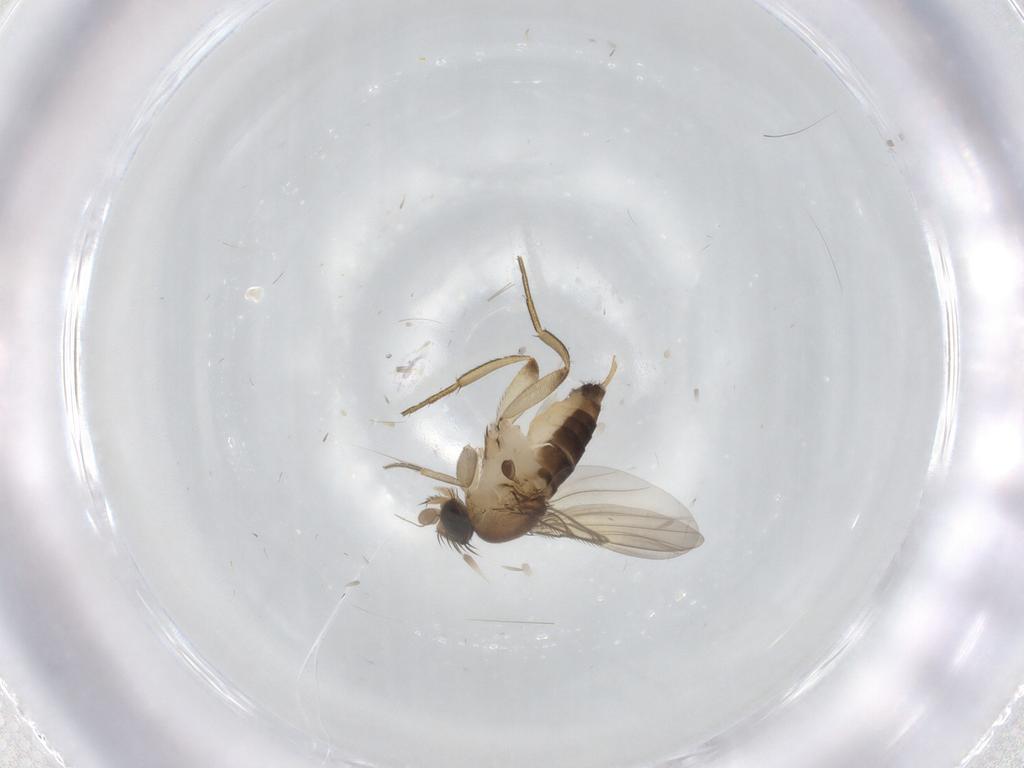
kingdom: Animalia
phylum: Arthropoda
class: Insecta
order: Diptera
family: Phoridae
